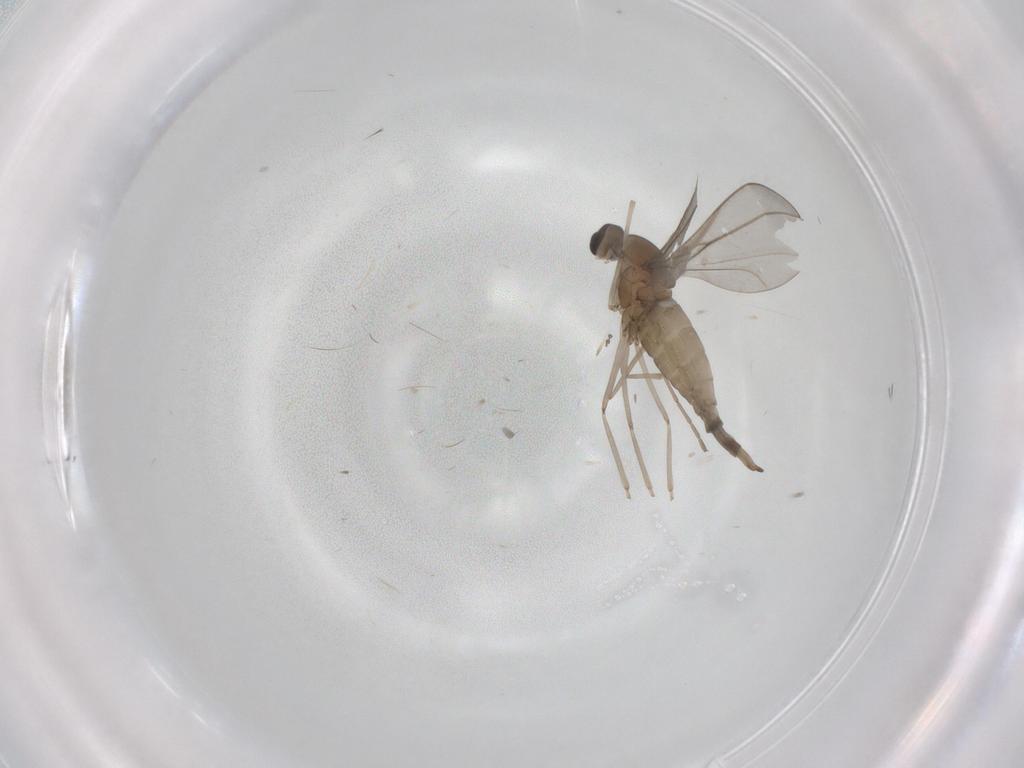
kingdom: Animalia
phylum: Arthropoda
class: Insecta
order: Diptera
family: Cecidomyiidae
